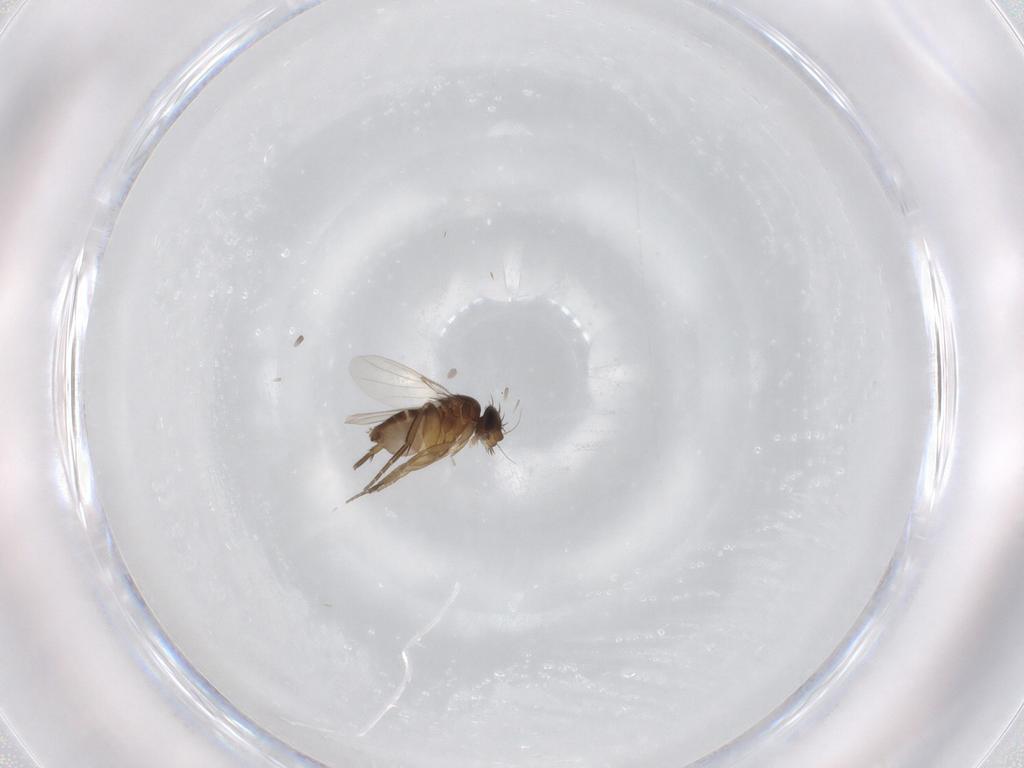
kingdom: Animalia
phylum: Arthropoda
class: Insecta
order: Diptera
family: Phoridae
